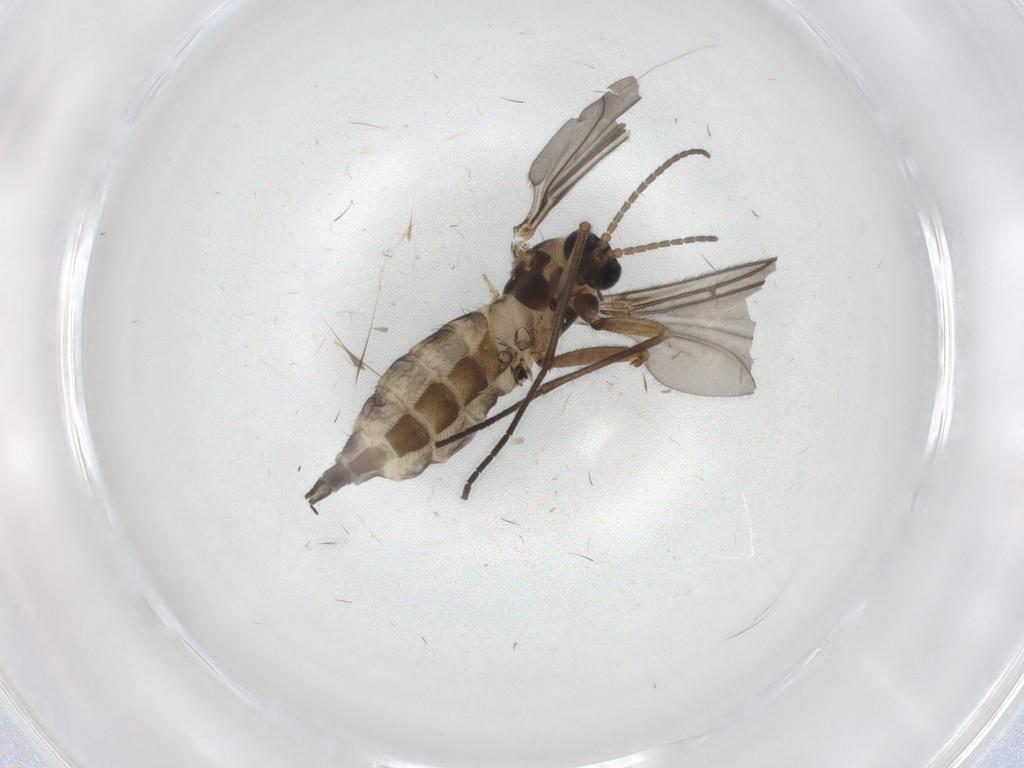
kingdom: Animalia
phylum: Arthropoda
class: Insecta
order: Diptera
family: Sciaridae
